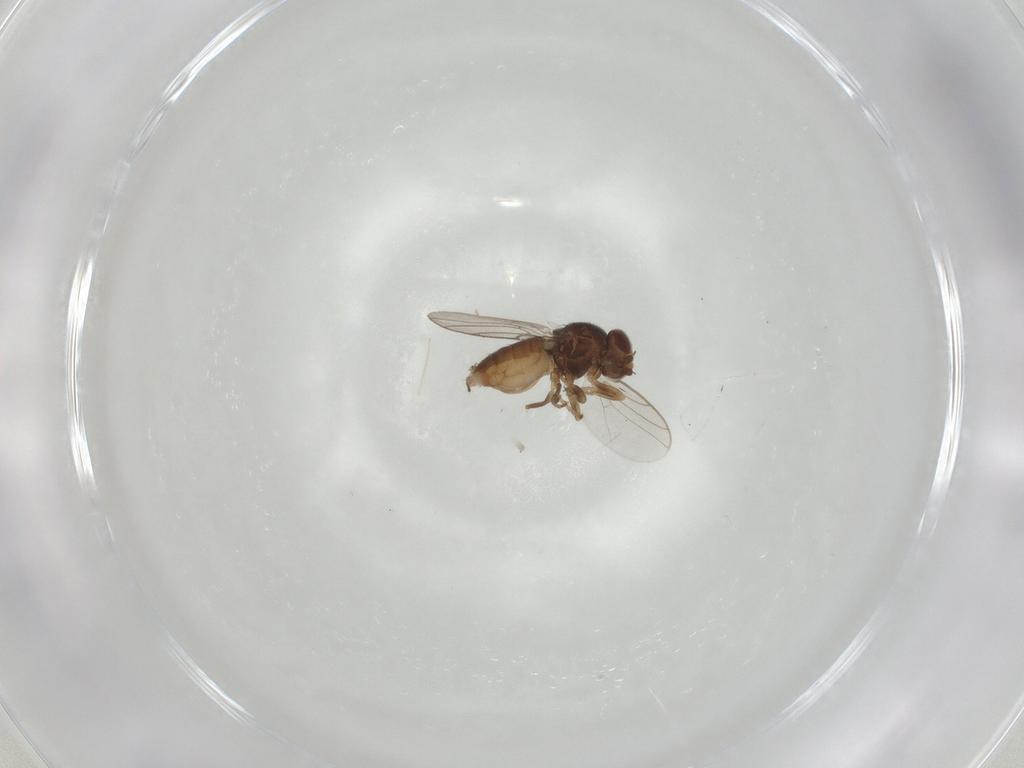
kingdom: Animalia
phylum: Arthropoda
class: Insecta
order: Diptera
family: Chloropidae
